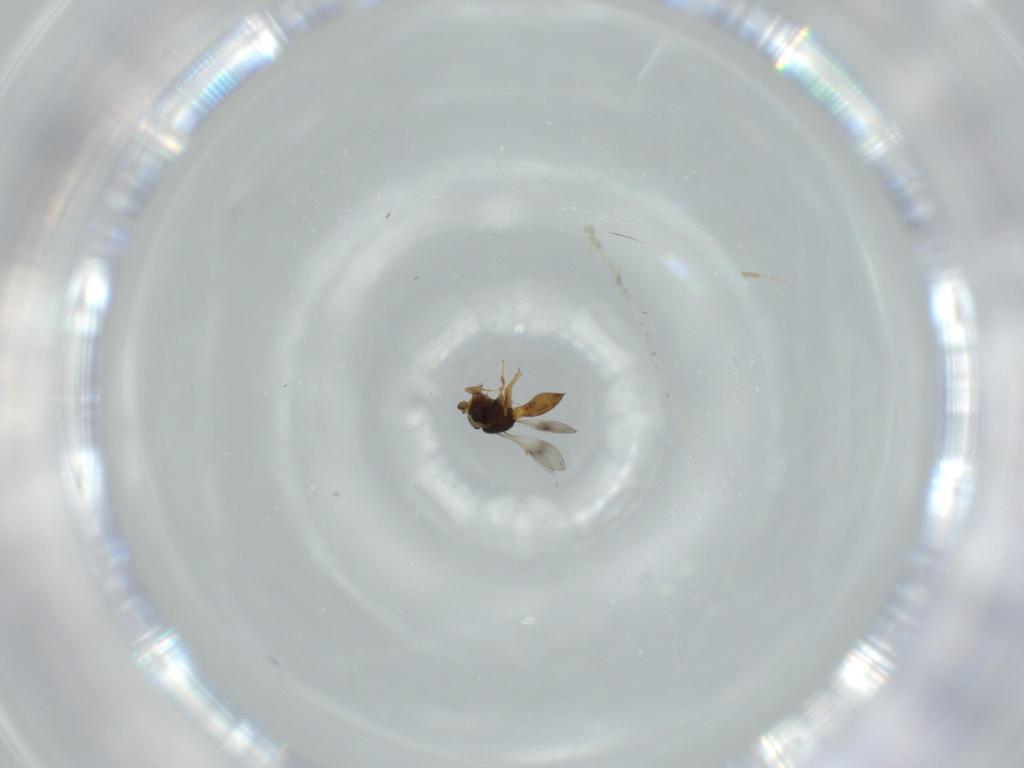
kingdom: Animalia
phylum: Arthropoda
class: Insecta
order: Hymenoptera
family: Scelionidae
